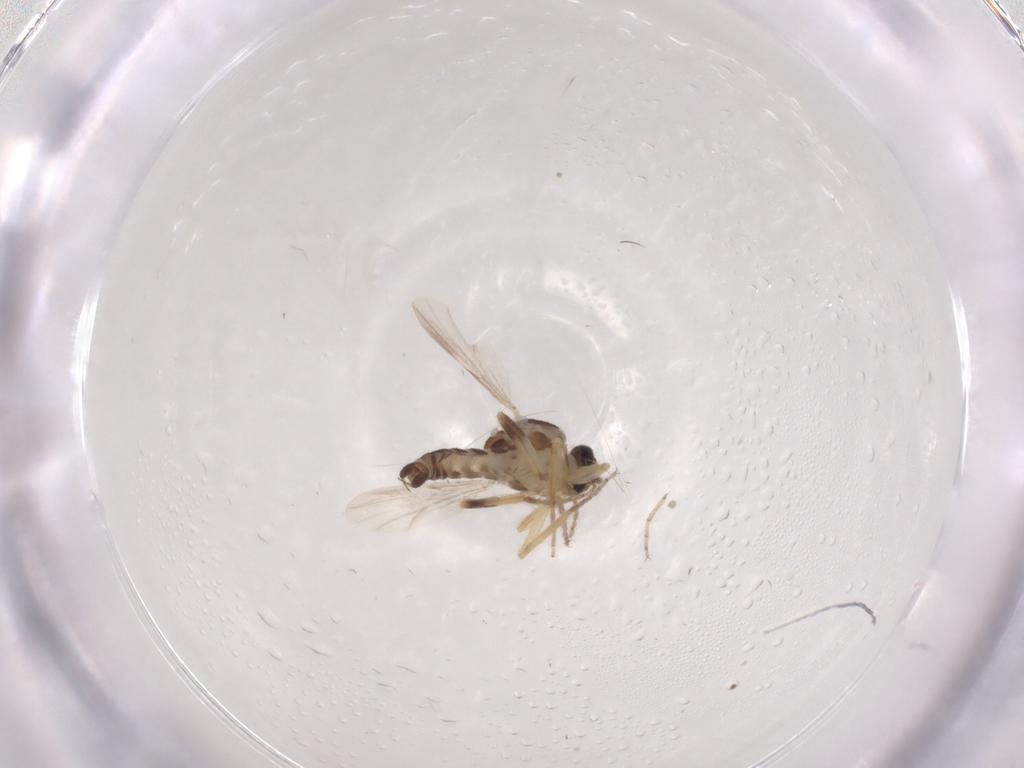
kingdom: Animalia
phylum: Arthropoda
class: Insecta
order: Diptera
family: Ceratopogonidae
